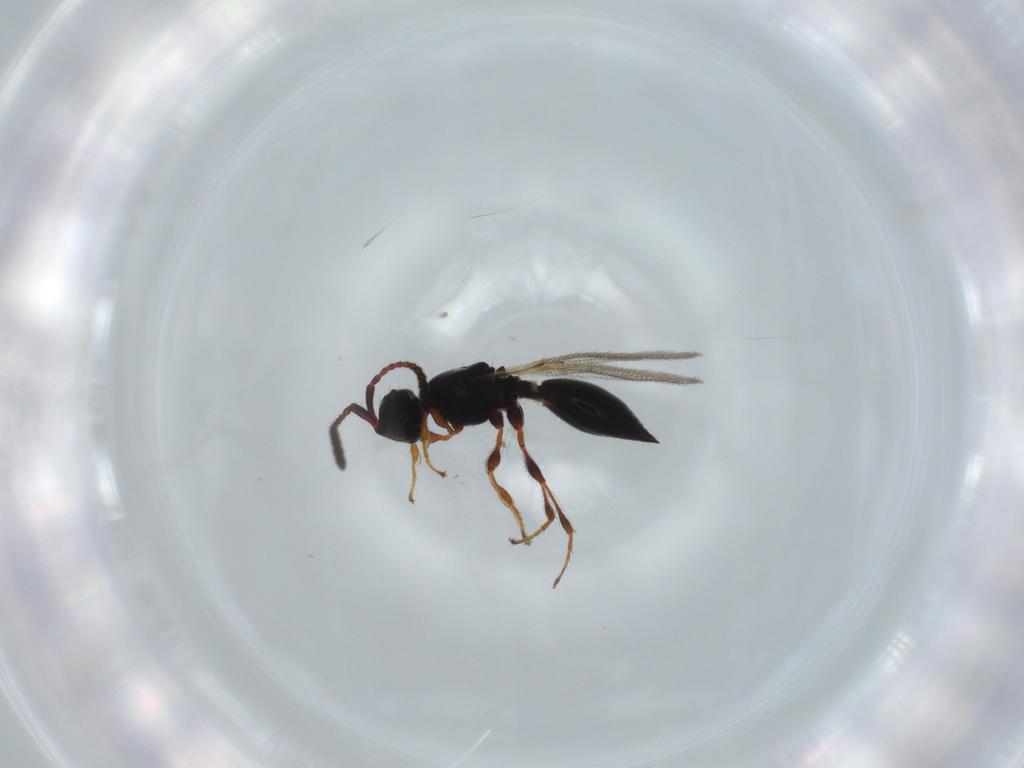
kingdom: Animalia
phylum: Arthropoda
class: Insecta
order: Hymenoptera
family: Diapriidae
